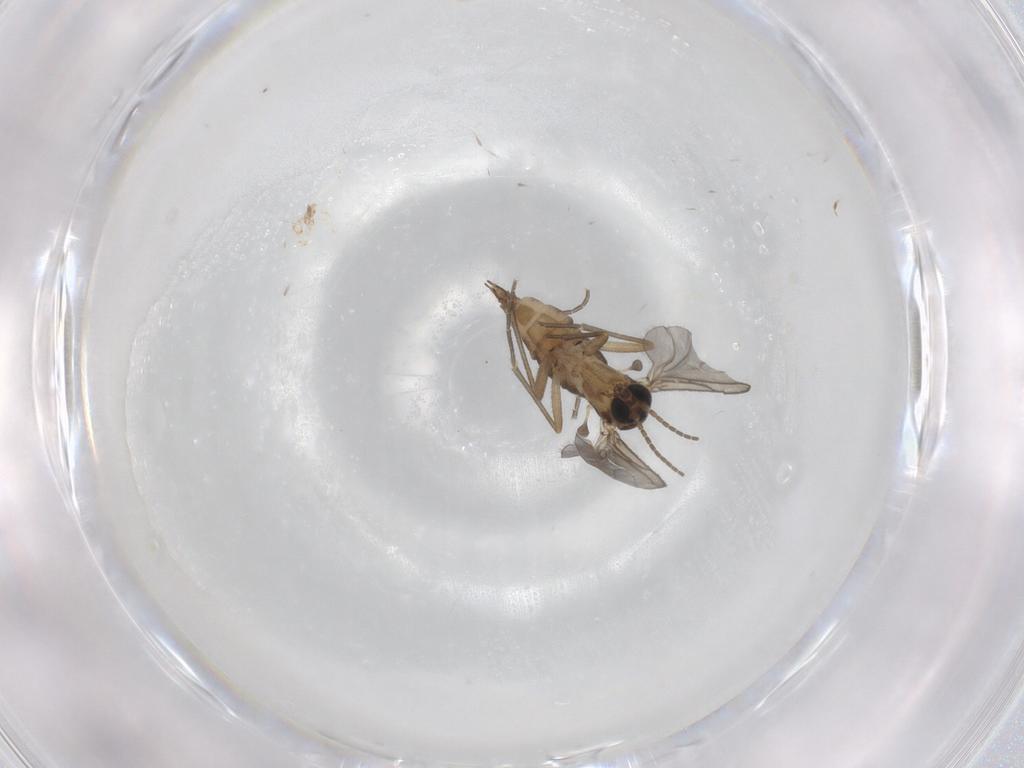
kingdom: Animalia
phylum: Arthropoda
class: Insecta
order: Diptera
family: Sciaridae
